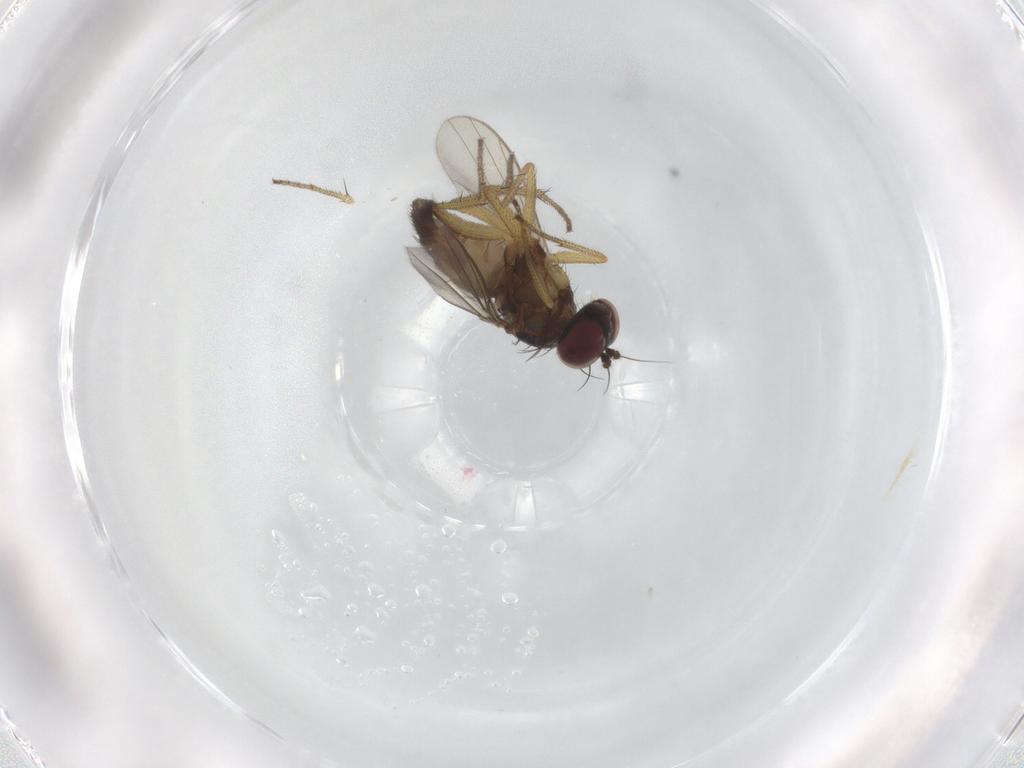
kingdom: Animalia
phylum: Arthropoda
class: Insecta
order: Diptera
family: Dolichopodidae
